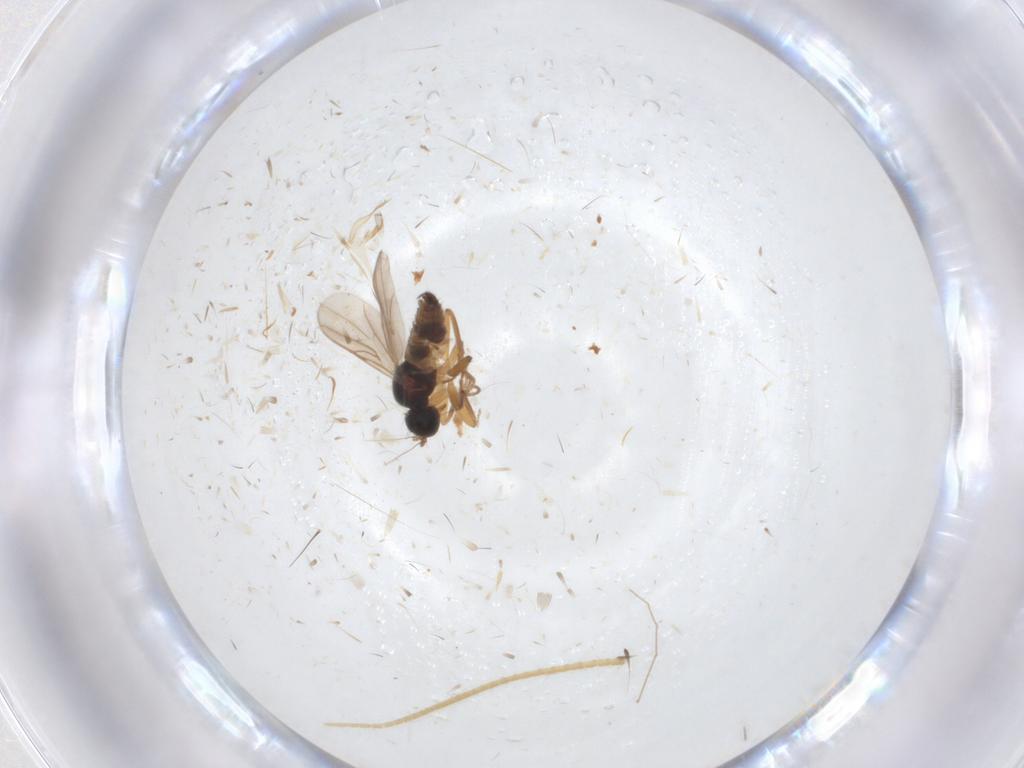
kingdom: Animalia
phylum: Arthropoda
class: Insecta
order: Diptera
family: Hybotidae
